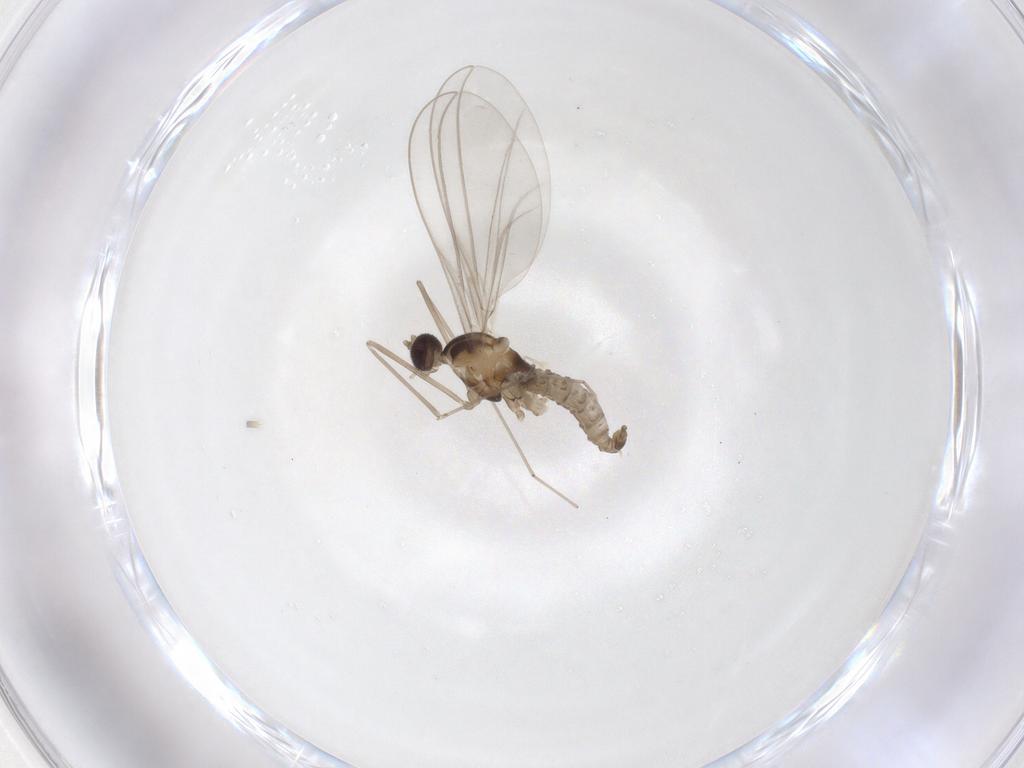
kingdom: Animalia
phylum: Arthropoda
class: Insecta
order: Diptera
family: Cecidomyiidae
